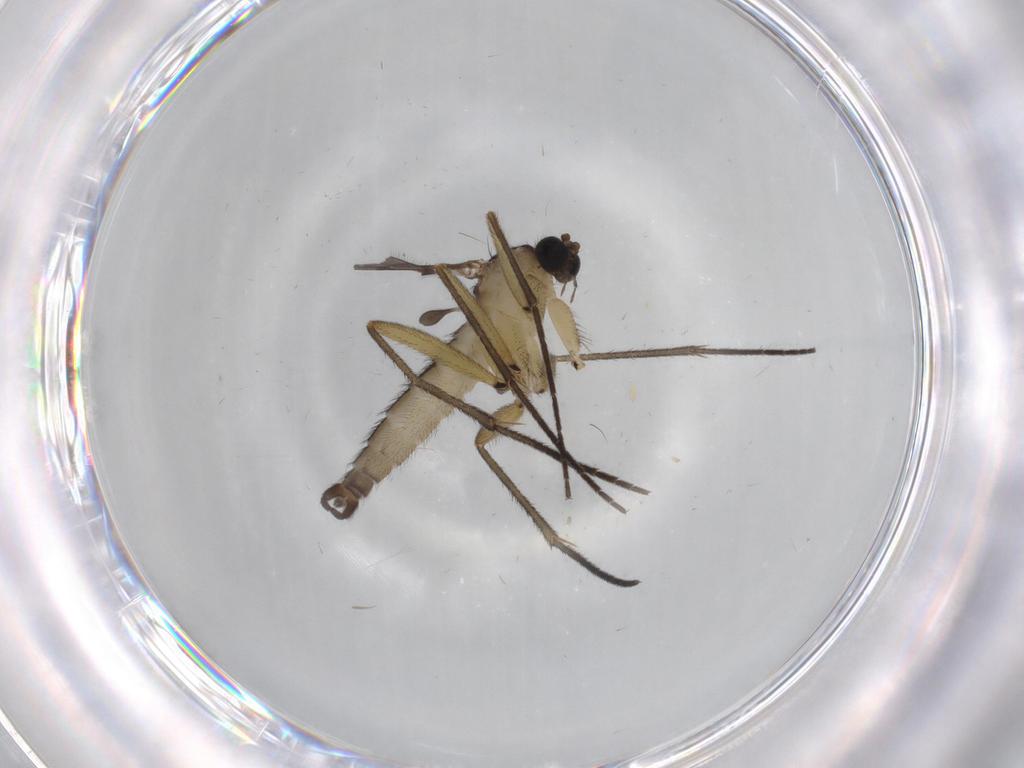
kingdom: Animalia
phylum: Arthropoda
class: Insecta
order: Diptera
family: Sciaridae
